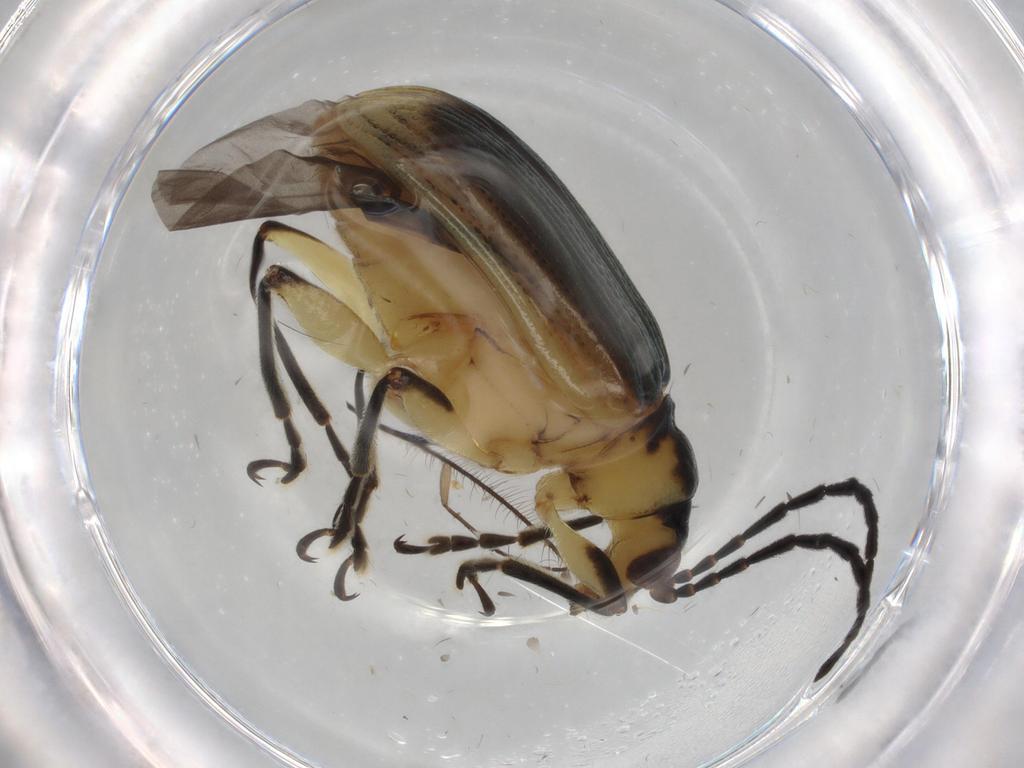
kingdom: Animalia
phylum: Arthropoda
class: Insecta
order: Coleoptera
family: Phengodidae
